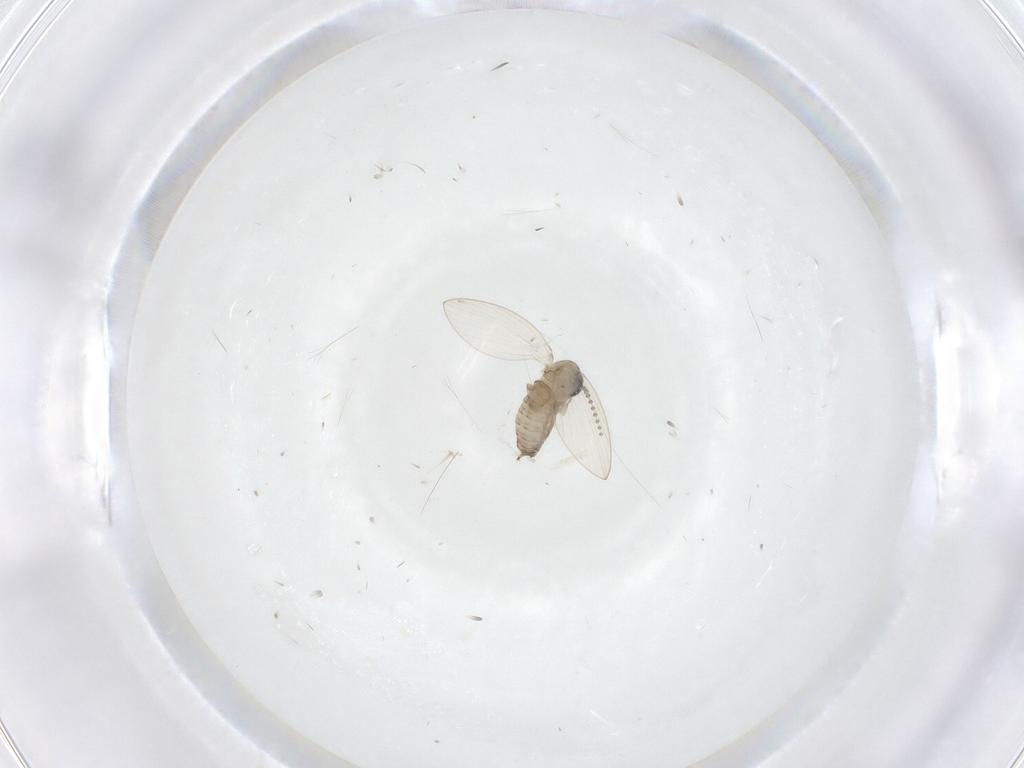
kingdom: Animalia
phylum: Arthropoda
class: Insecta
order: Diptera
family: Psychodidae
